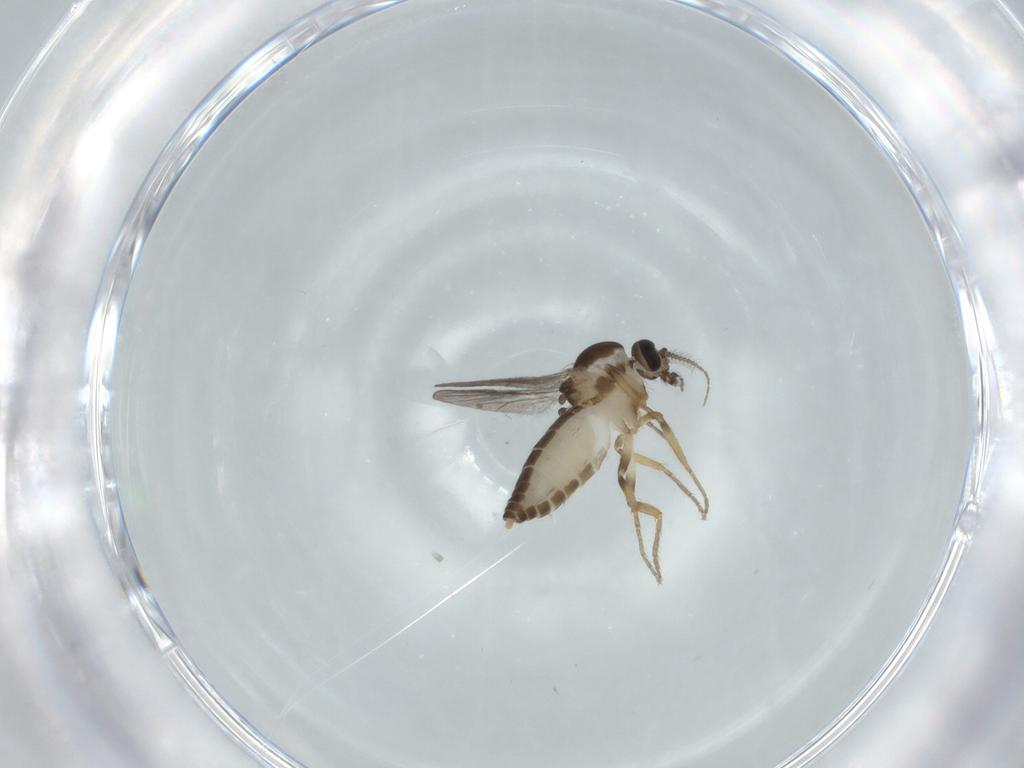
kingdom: Animalia
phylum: Arthropoda
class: Insecta
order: Diptera
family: Ceratopogonidae
